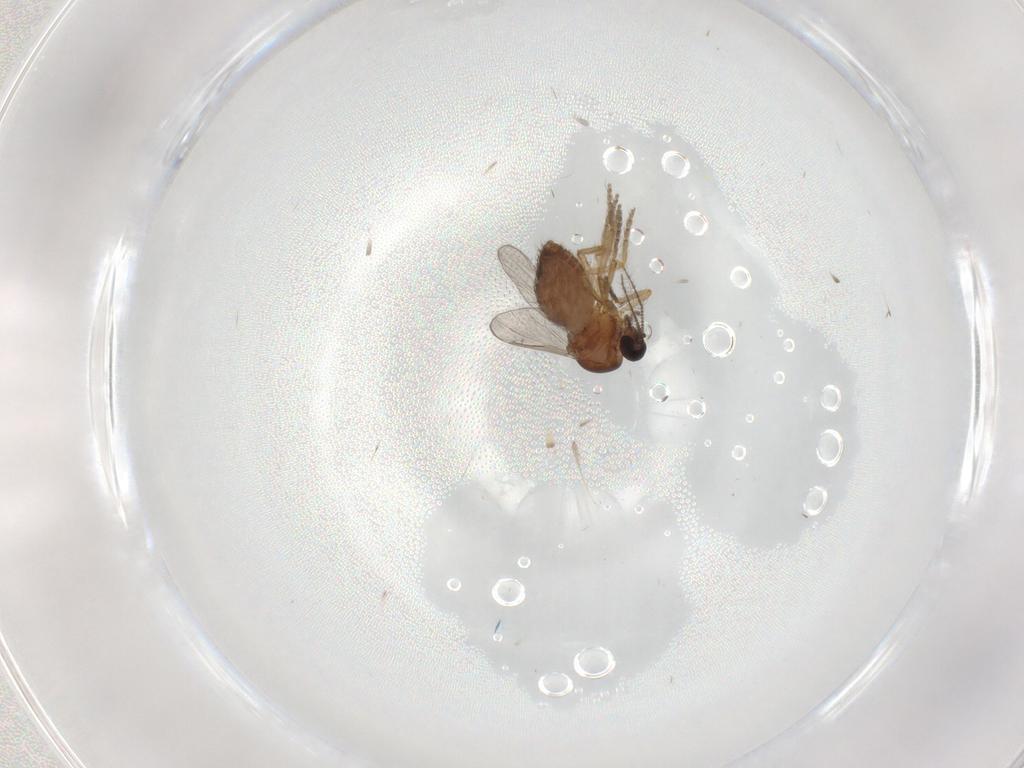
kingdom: Animalia
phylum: Arthropoda
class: Insecta
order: Diptera
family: Ceratopogonidae
